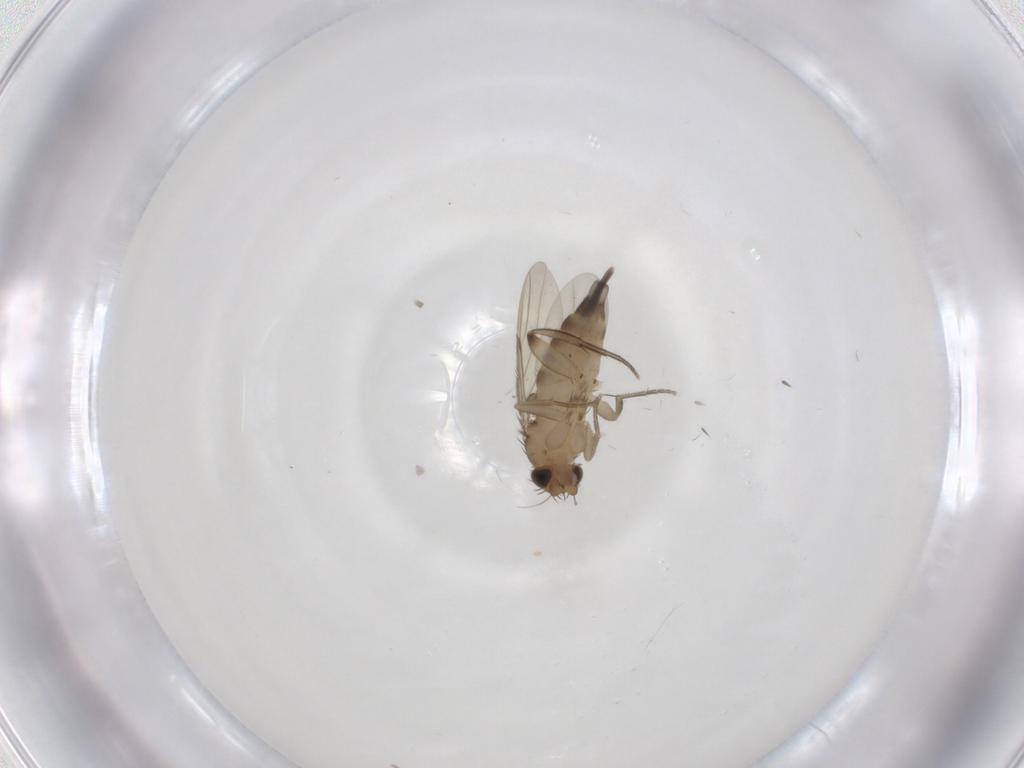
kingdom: Animalia
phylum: Arthropoda
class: Insecta
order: Diptera
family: Phoridae
